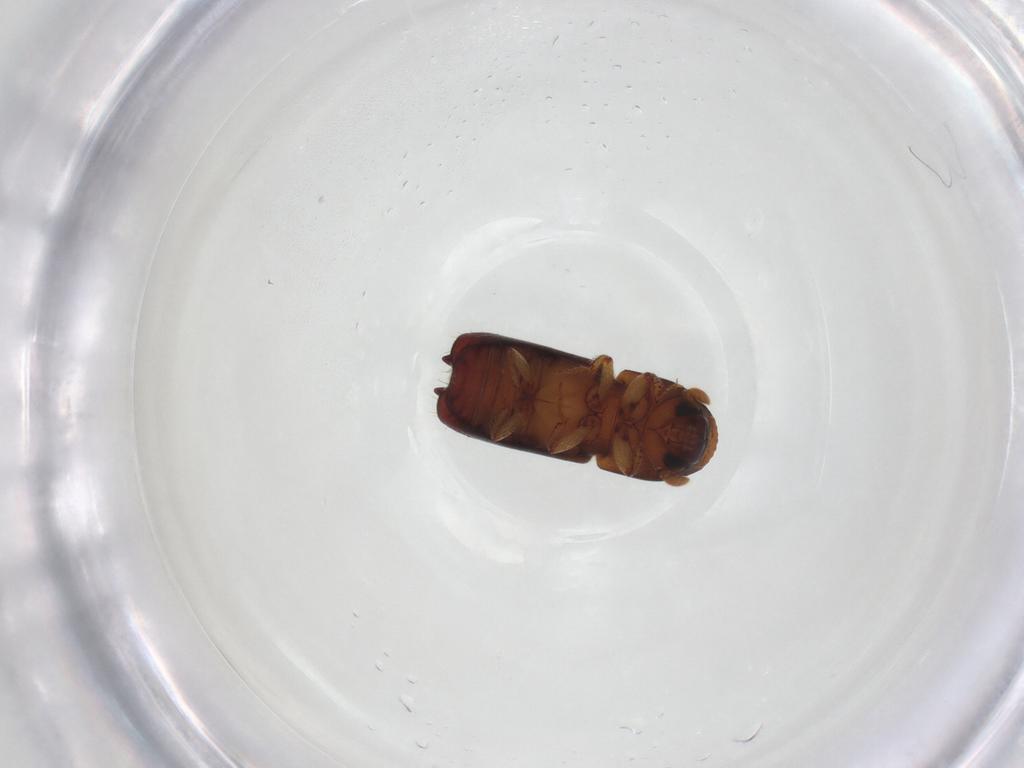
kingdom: Animalia
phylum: Arthropoda
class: Insecta
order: Coleoptera
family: Curculionidae
